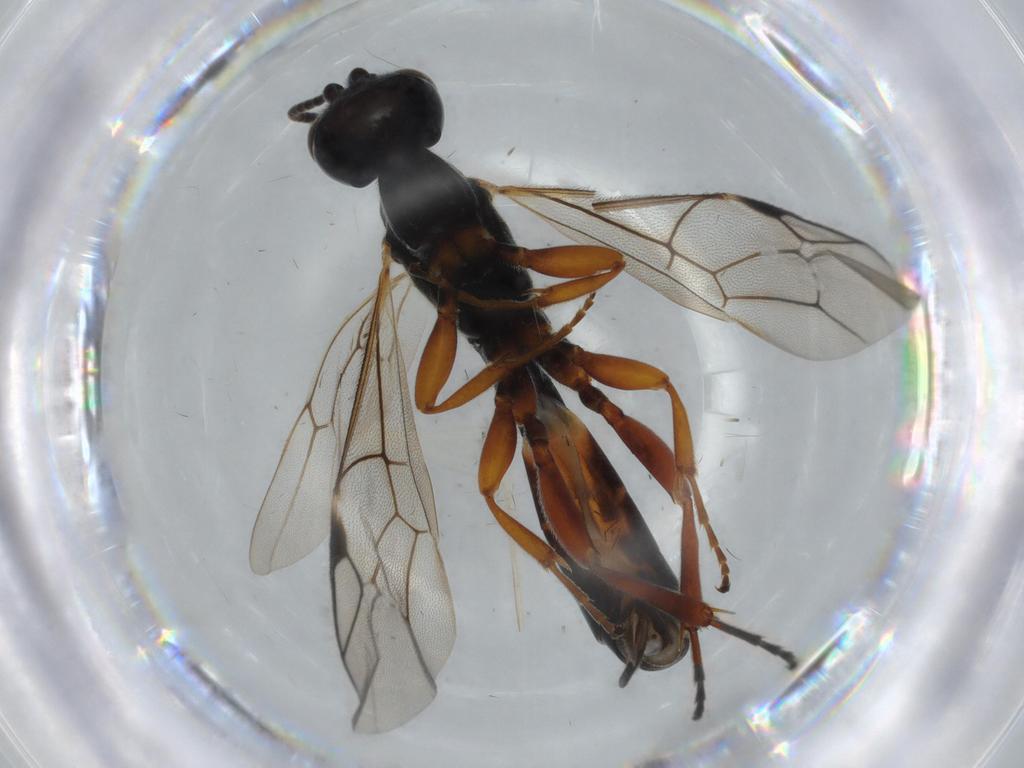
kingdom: Animalia
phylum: Arthropoda
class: Insecta
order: Hymenoptera
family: Ichneumonidae
